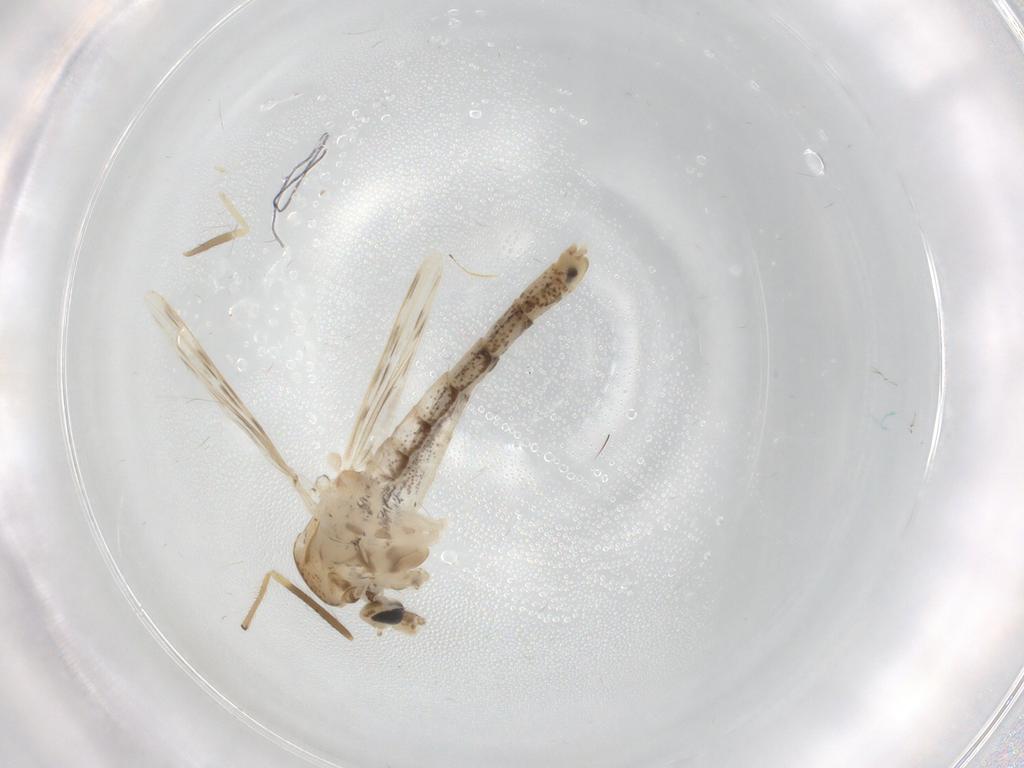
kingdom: Animalia
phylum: Arthropoda
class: Insecta
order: Diptera
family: Chaoboridae
